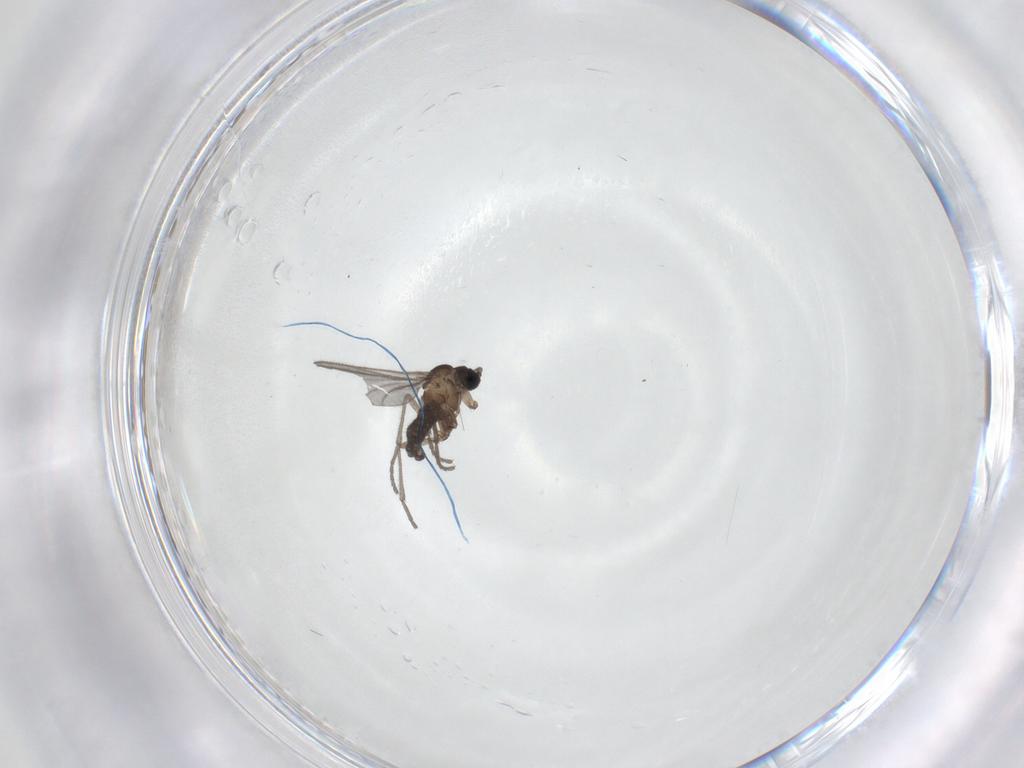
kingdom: Animalia
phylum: Arthropoda
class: Insecta
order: Diptera
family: Sciaridae
